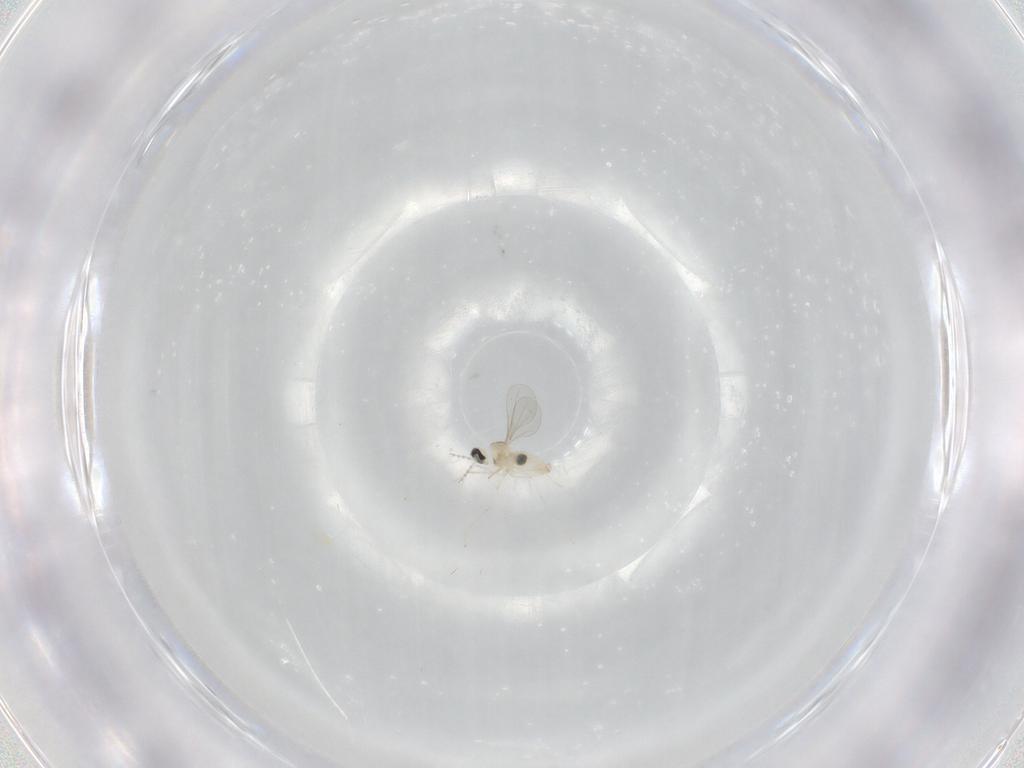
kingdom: Animalia
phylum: Arthropoda
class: Insecta
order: Diptera
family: Cecidomyiidae
